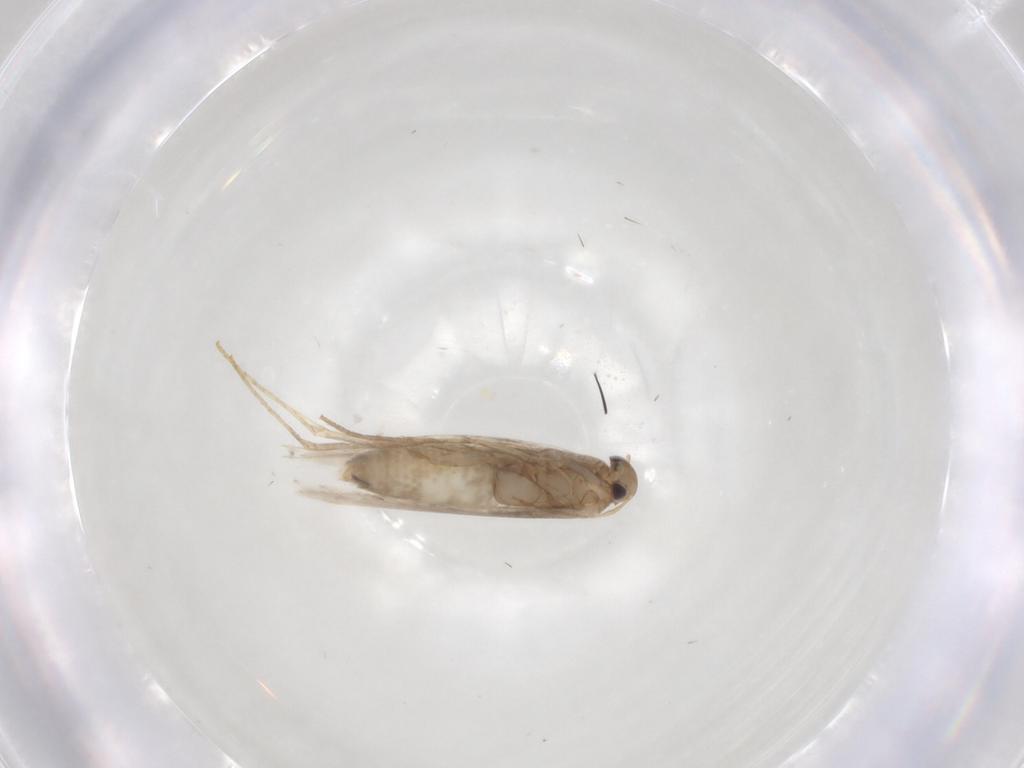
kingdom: Animalia
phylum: Arthropoda
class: Insecta
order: Lepidoptera
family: Gracillariidae
